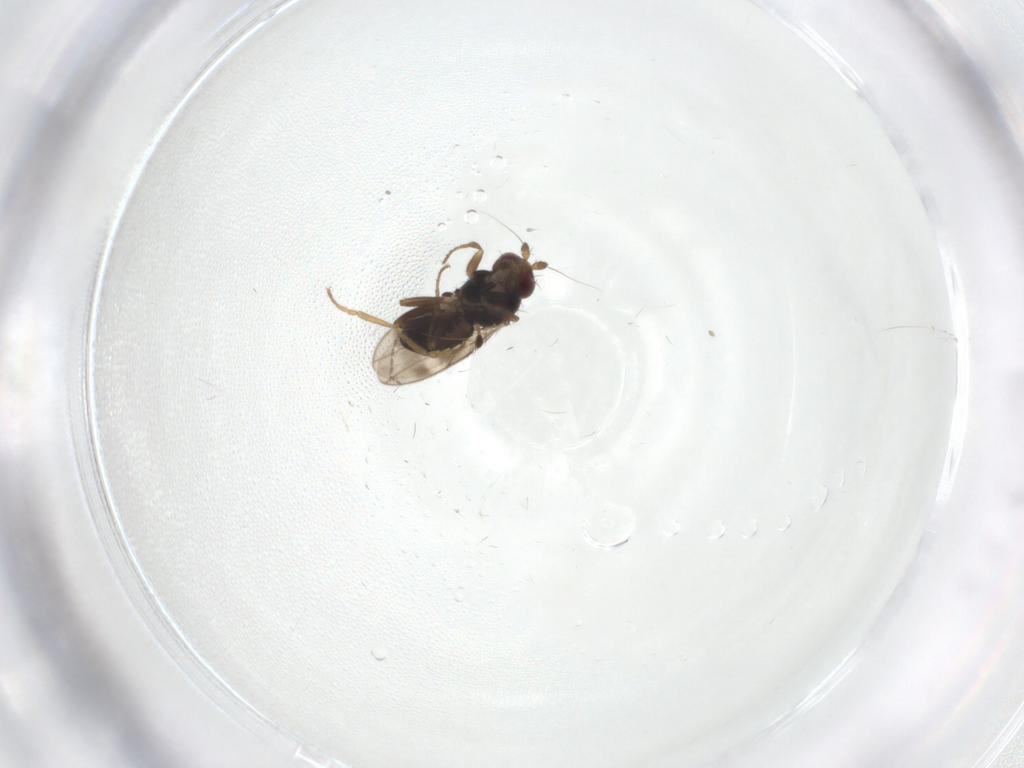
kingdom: Animalia
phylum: Arthropoda
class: Insecta
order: Diptera
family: Sphaeroceridae
